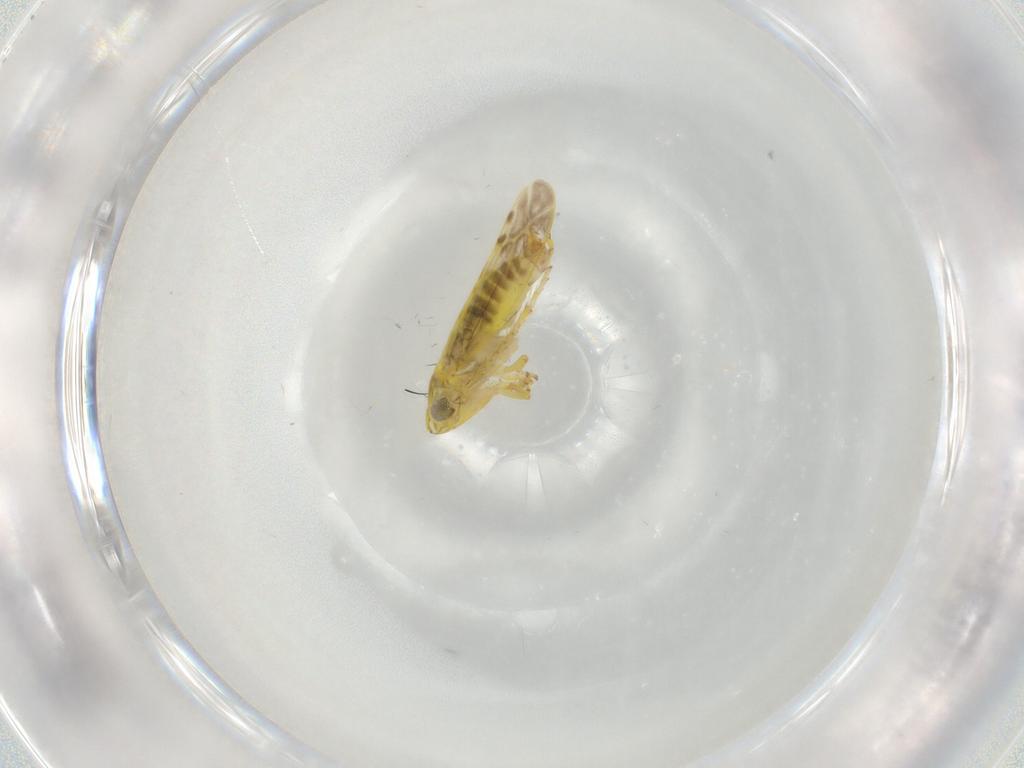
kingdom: Animalia
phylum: Arthropoda
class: Insecta
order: Hemiptera
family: Cicadellidae
